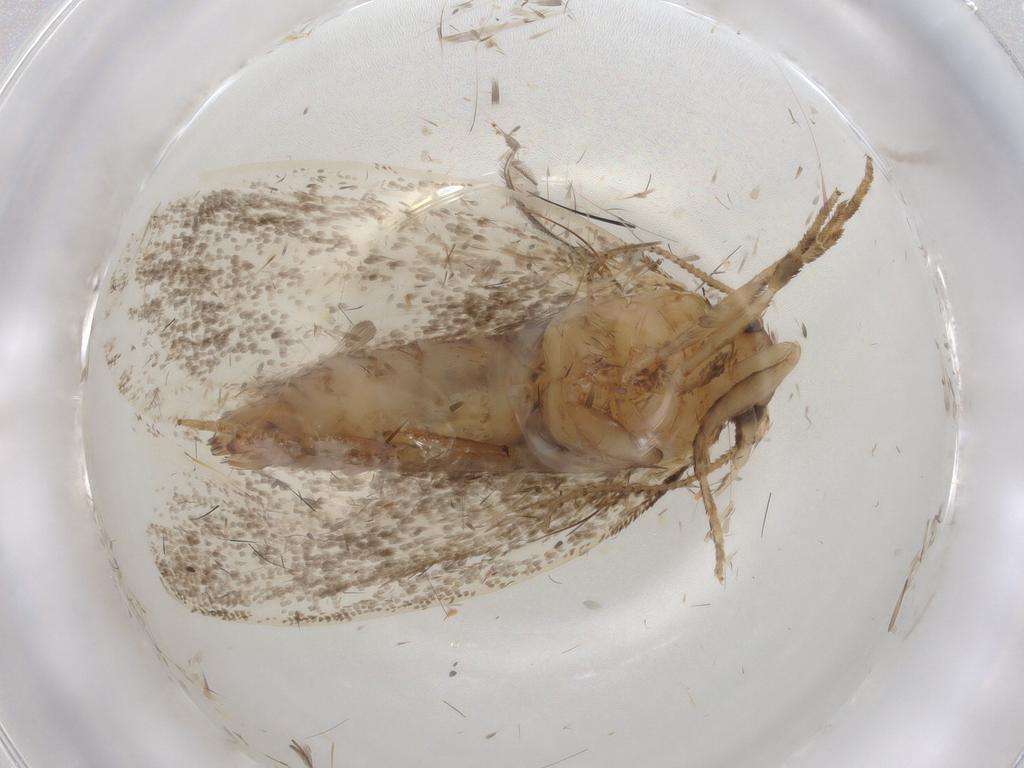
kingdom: Animalia
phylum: Arthropoda
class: Insecta
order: Lepidoptera
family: Tineidae
